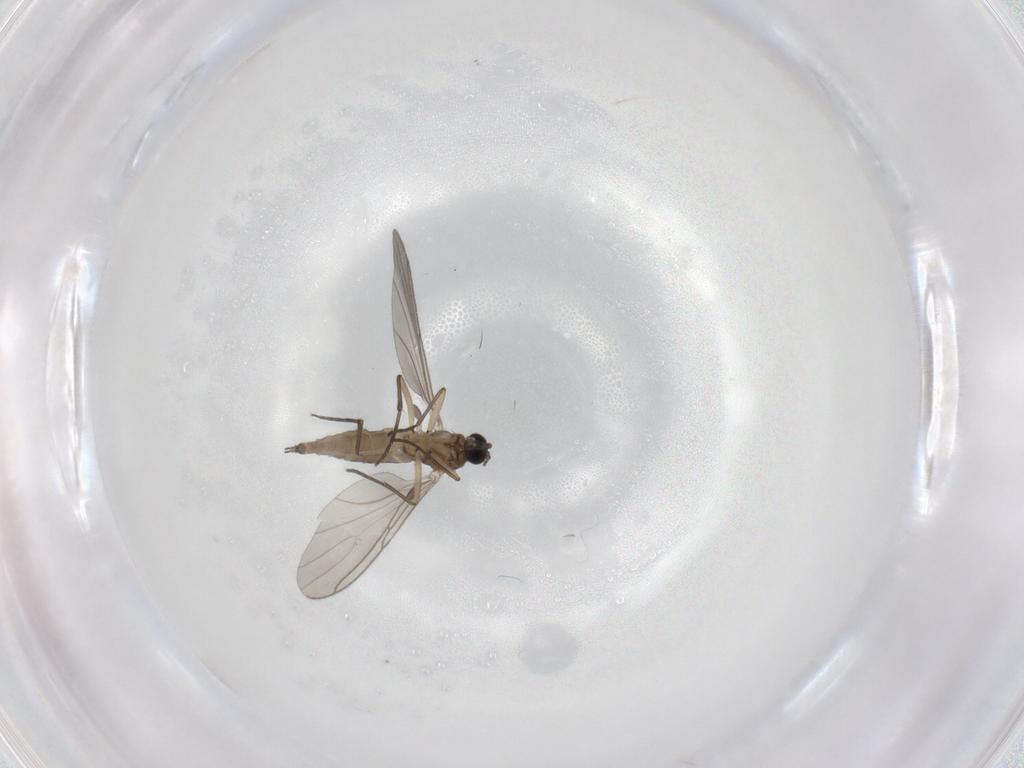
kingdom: Animalia
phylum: Arthropoda
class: Insecta
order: Diptera
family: Sciaridae
